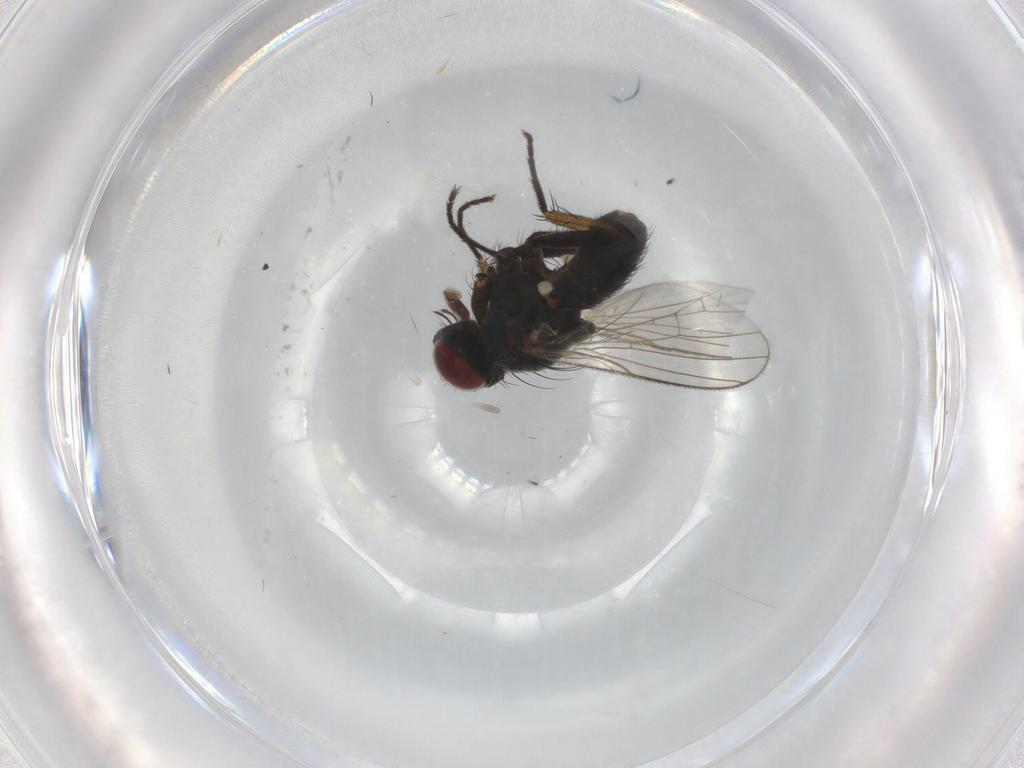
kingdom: Animalia
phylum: Arthropoda
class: Insecta
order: Diptera
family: Muscidae
